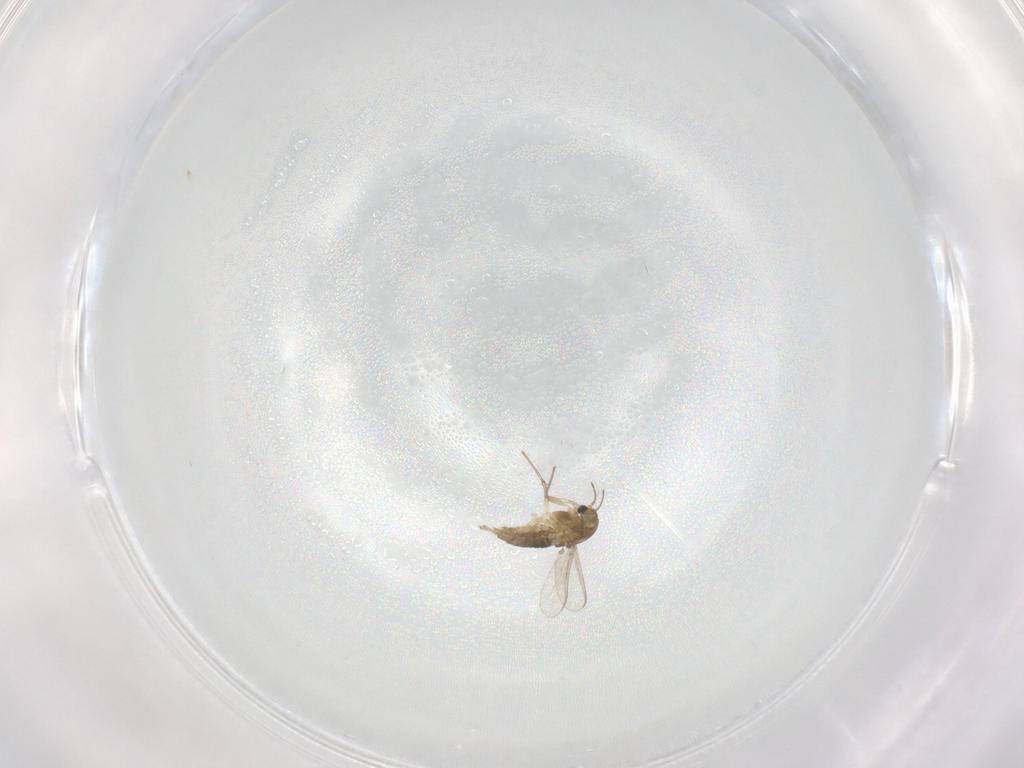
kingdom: Animalia
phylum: Arthropoda
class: Insecta
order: Diptera
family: Chironomidae
